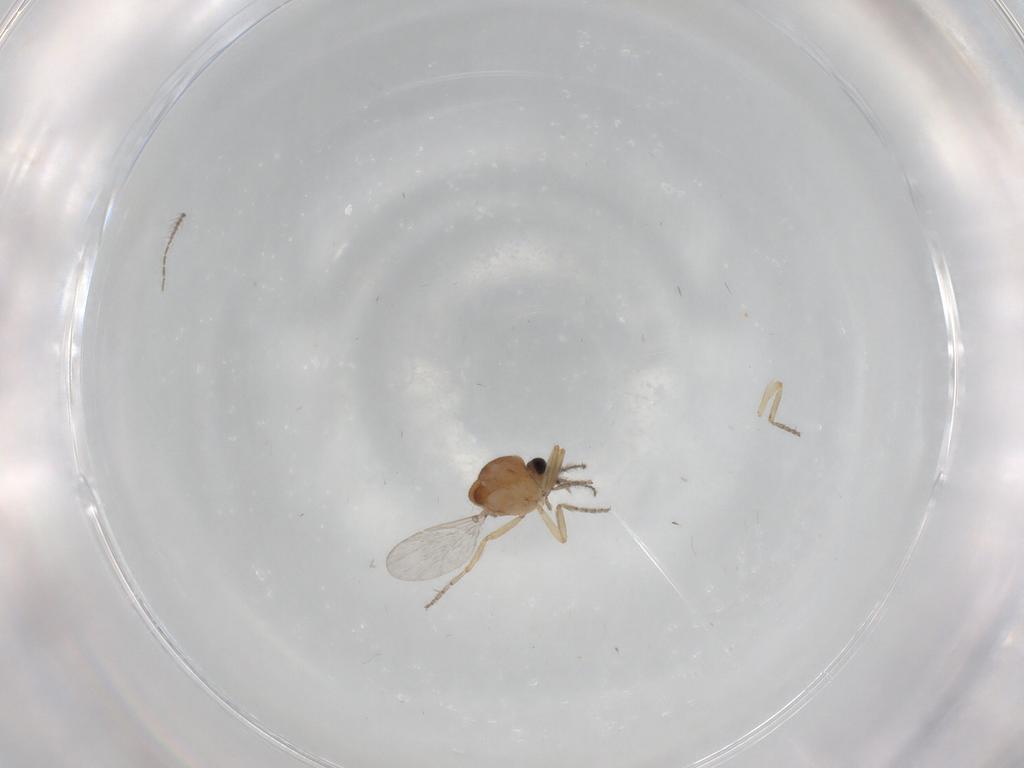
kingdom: Animalia
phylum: Arthropoda
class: Insecta
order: Diptera
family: Ceratopogonidae
